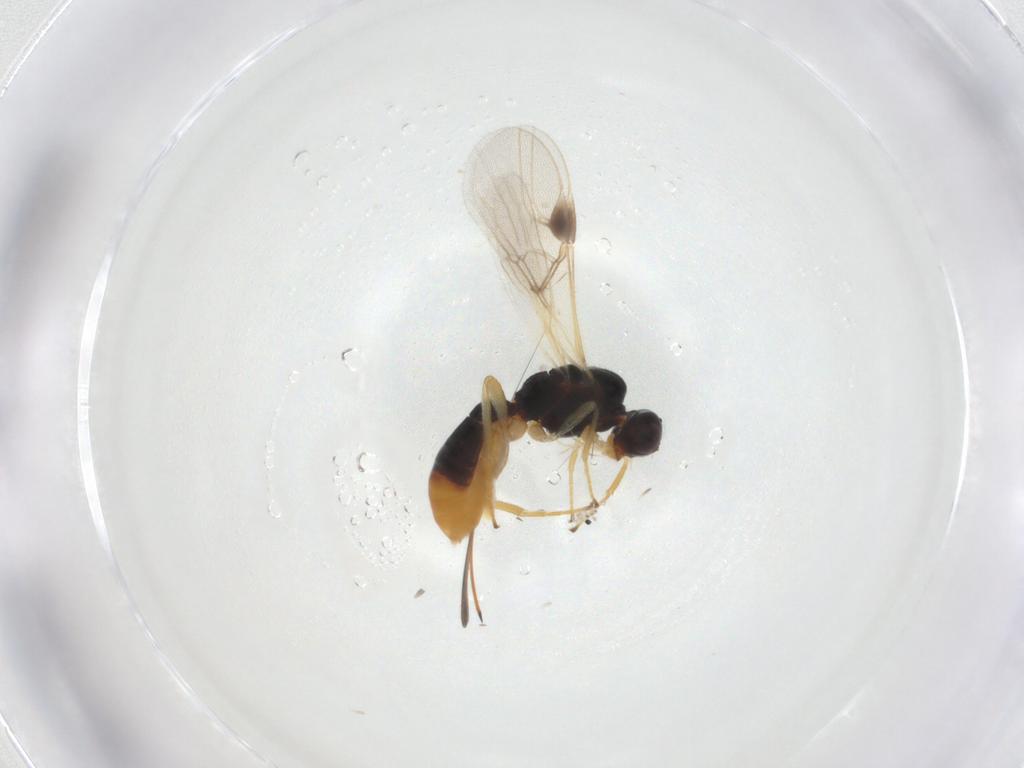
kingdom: Animalia
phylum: Arthropoda
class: Insecta
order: Hymenoptera
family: Braconidae
